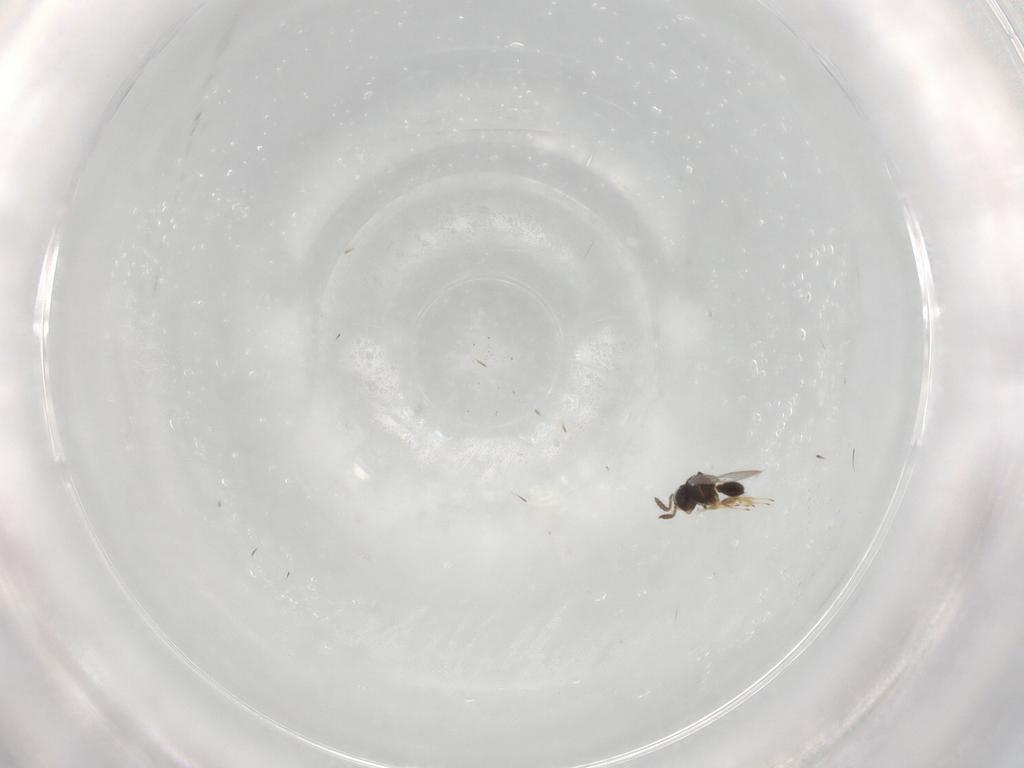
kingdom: Animalia
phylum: Arthropoda
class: Insecta
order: Hymenoptera
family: Scelionidae
